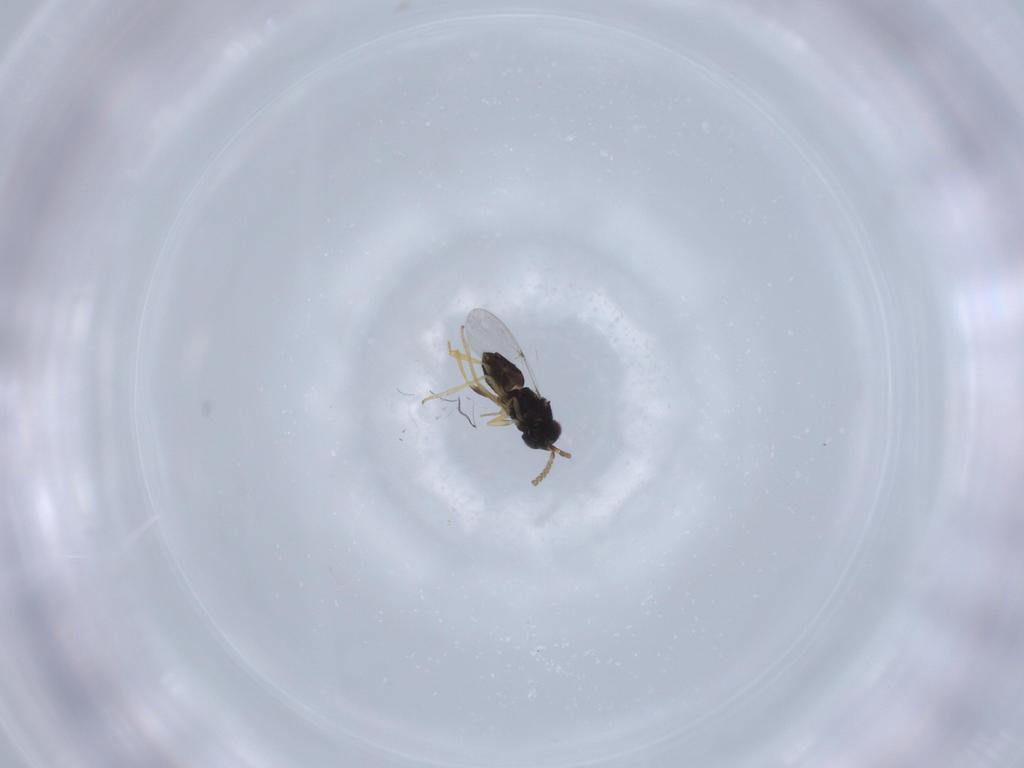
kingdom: Animalia
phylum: Arthropoda
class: Insecta
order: Hymenoptera
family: Encyrtidae
